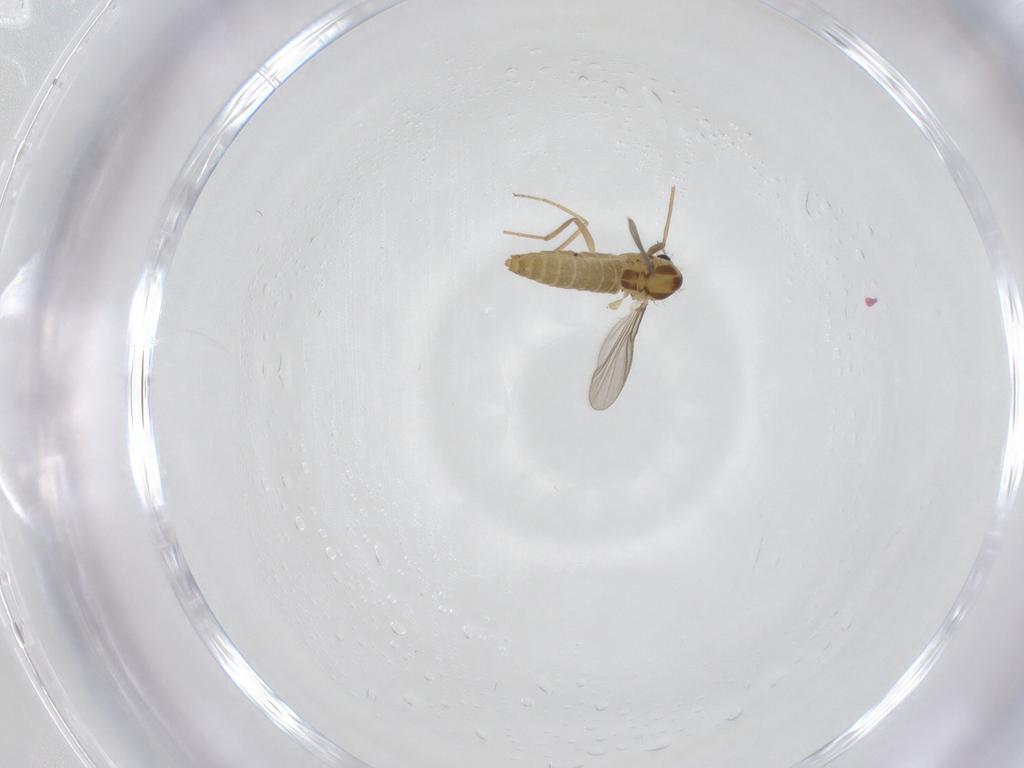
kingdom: Animalia
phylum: Arthropoda
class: Insecta
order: Diptera
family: Chironomidae
